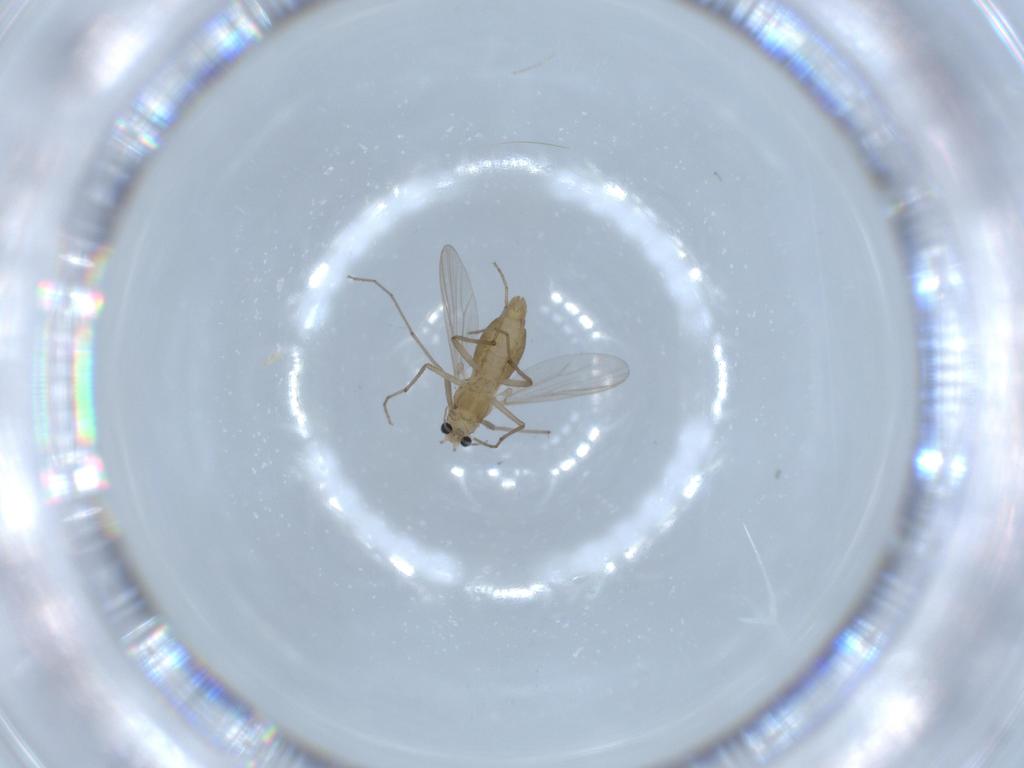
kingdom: Animalia
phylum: Arthropoda
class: Insecta
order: Diptera
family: Chironomidae
